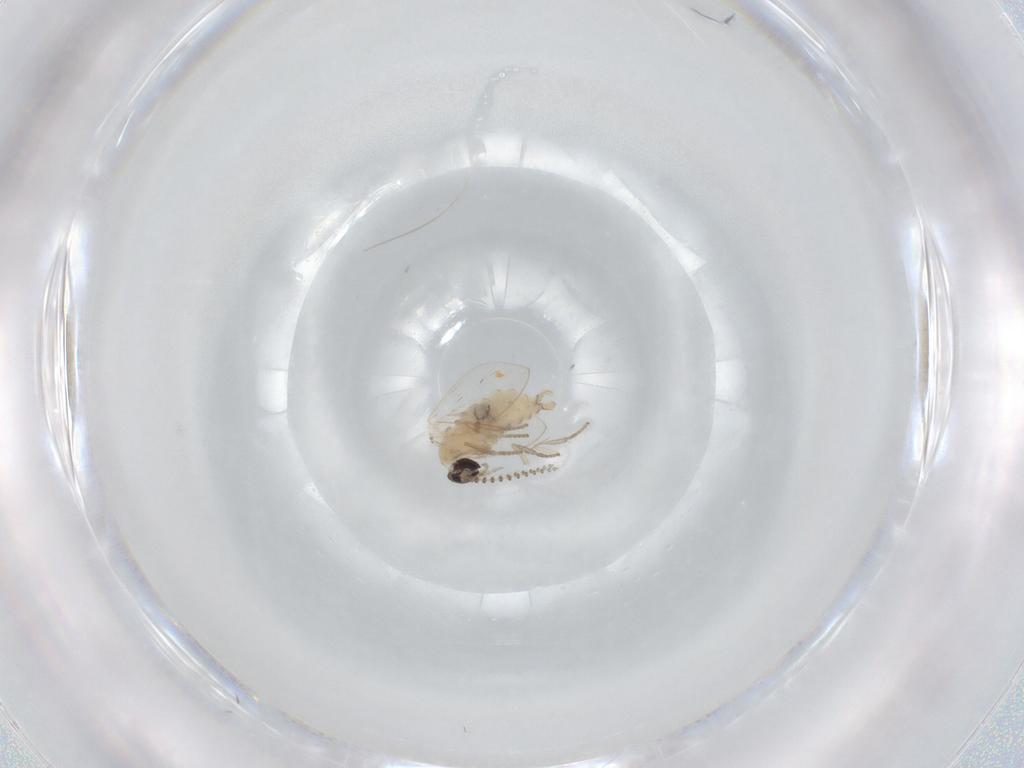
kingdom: Animalia
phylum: Arthropoda
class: Insecta
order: Diptera
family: Psychodidae
